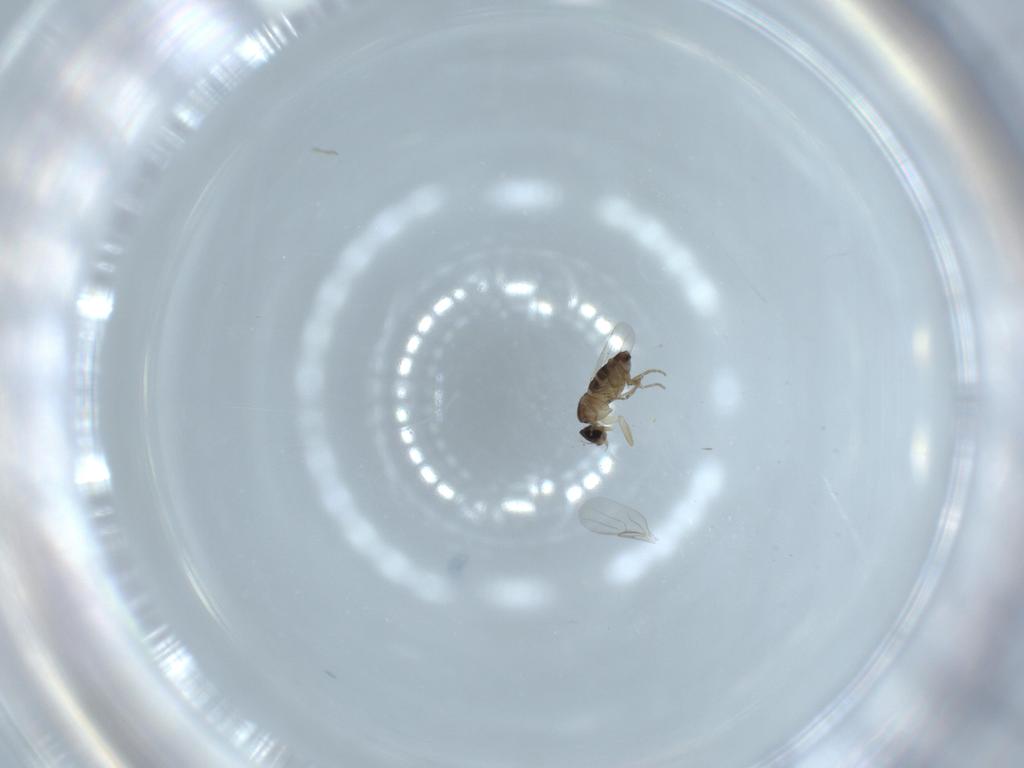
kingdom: Animalia
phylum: Arthropoda
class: Insecta
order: Diptera
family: Phoridae
